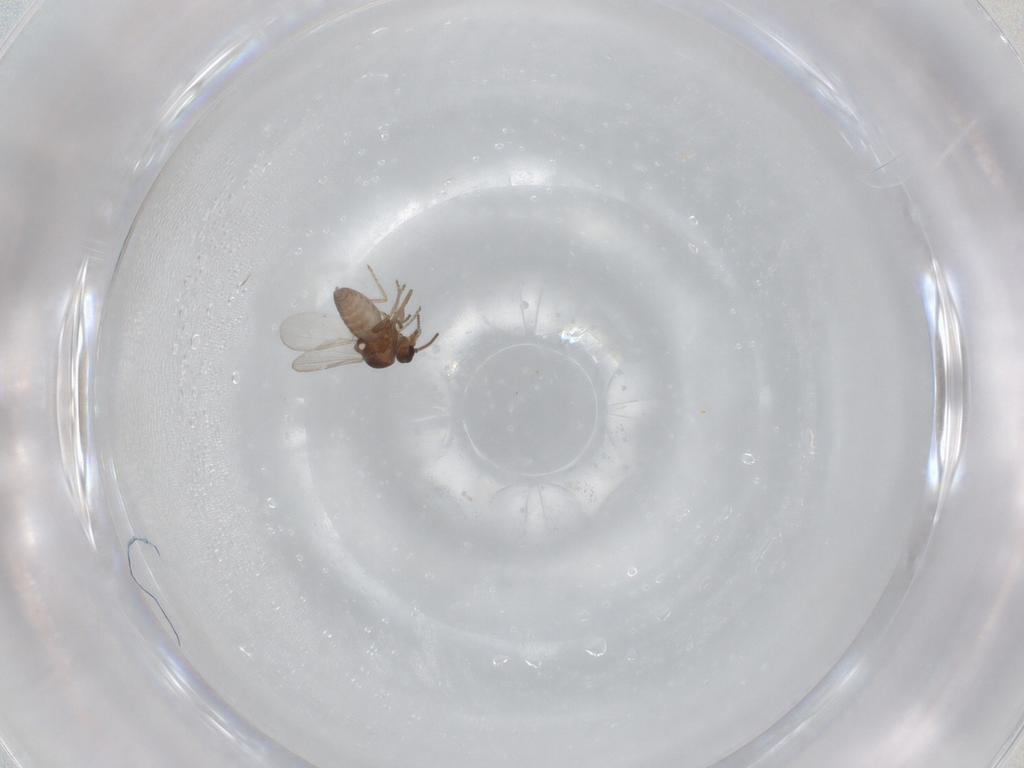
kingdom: Animalia
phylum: Arthropoda
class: Insecta
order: Diptera
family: Ceratopogonidae
